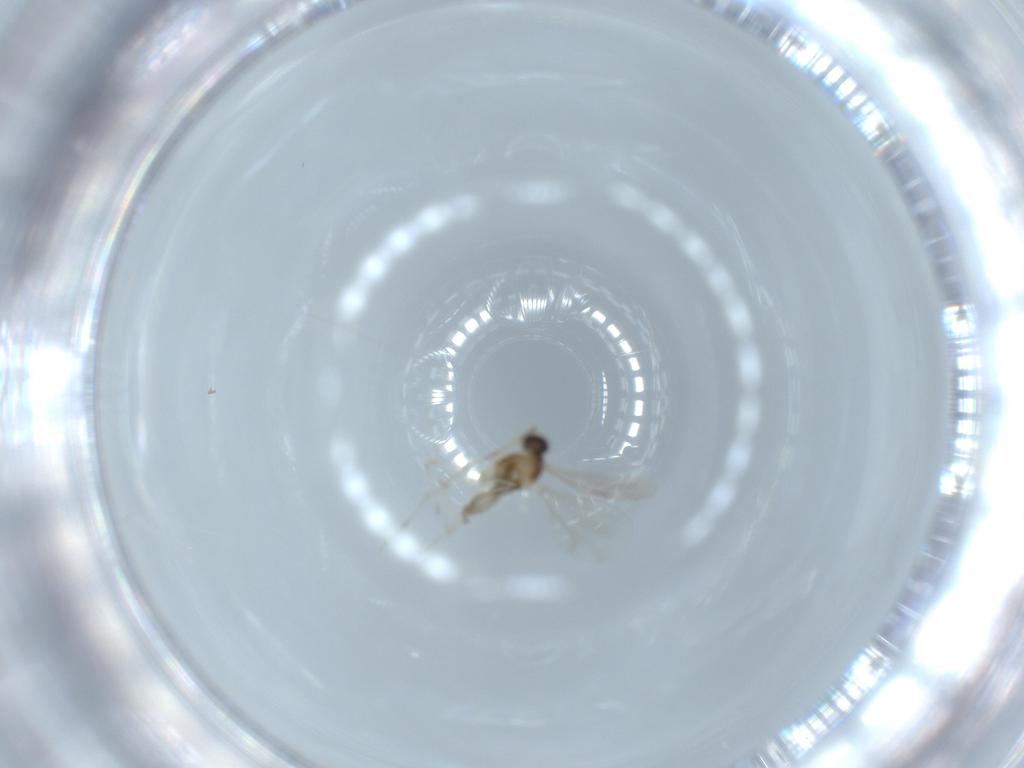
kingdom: Animalia
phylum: Arthropoda
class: Insecta
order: Diptera
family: Cecidomyiidae
